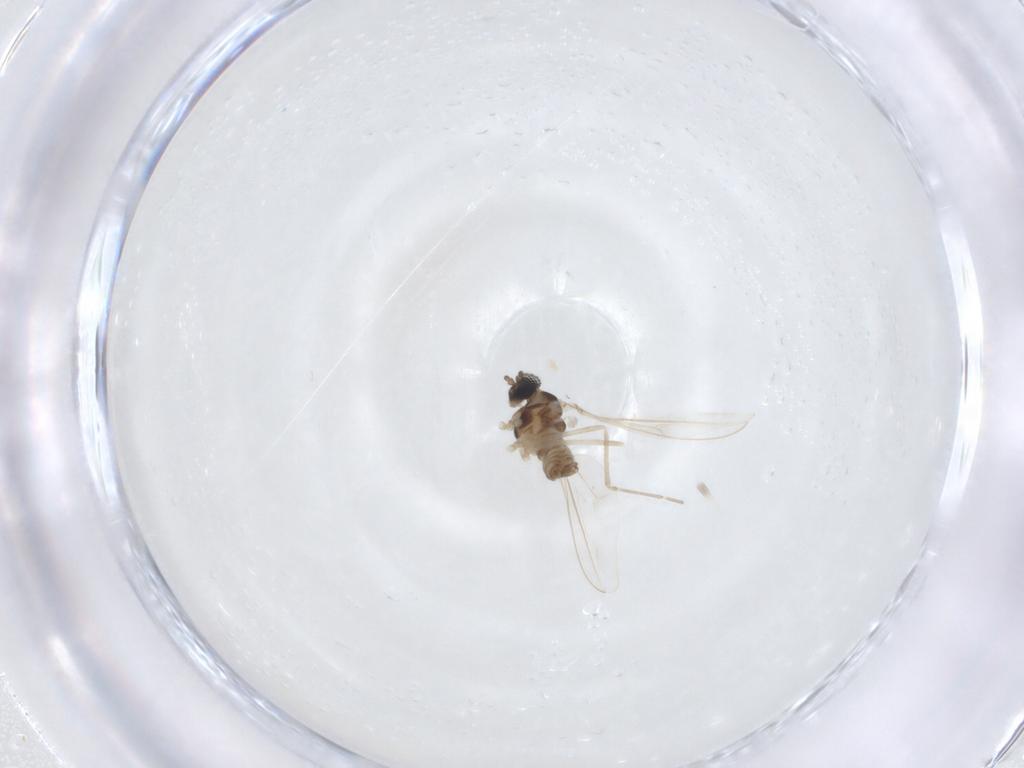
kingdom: Animalia
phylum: Arthropoda
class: Insecta
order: Diptera
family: Cecidomyiidae
